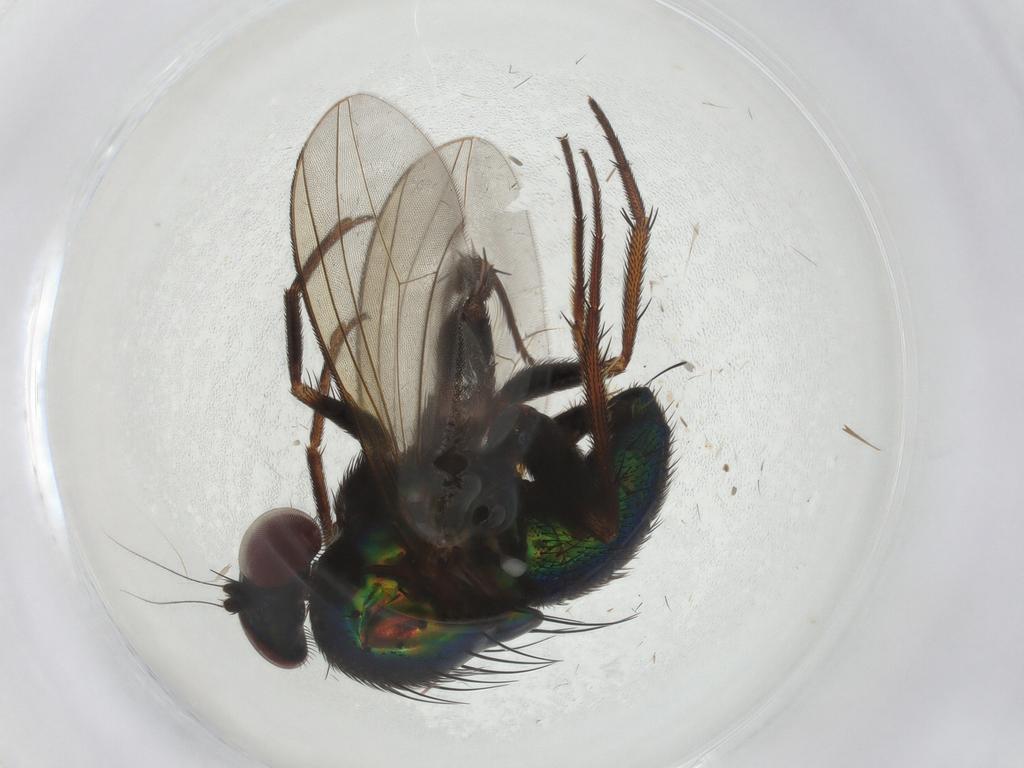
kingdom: Animalia
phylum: Arthropoda
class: Insecta
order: Diptera
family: Dolichopodidae
